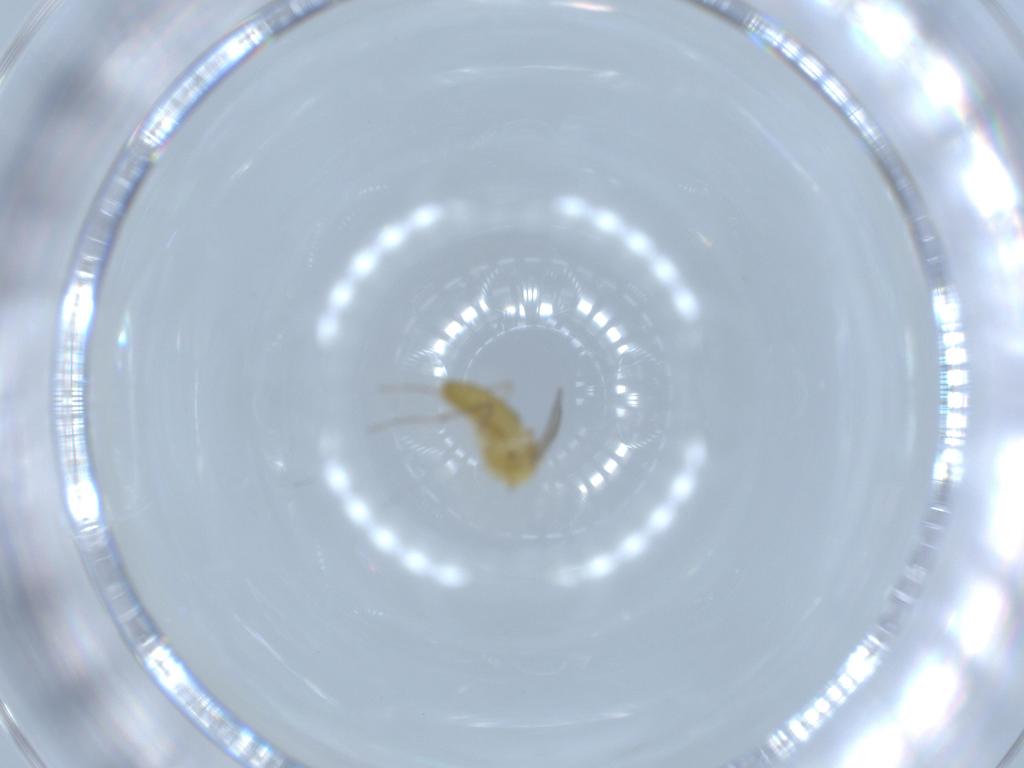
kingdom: Animalia
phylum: Arthropoda
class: Insecta
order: Diptera
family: Chironomidae
